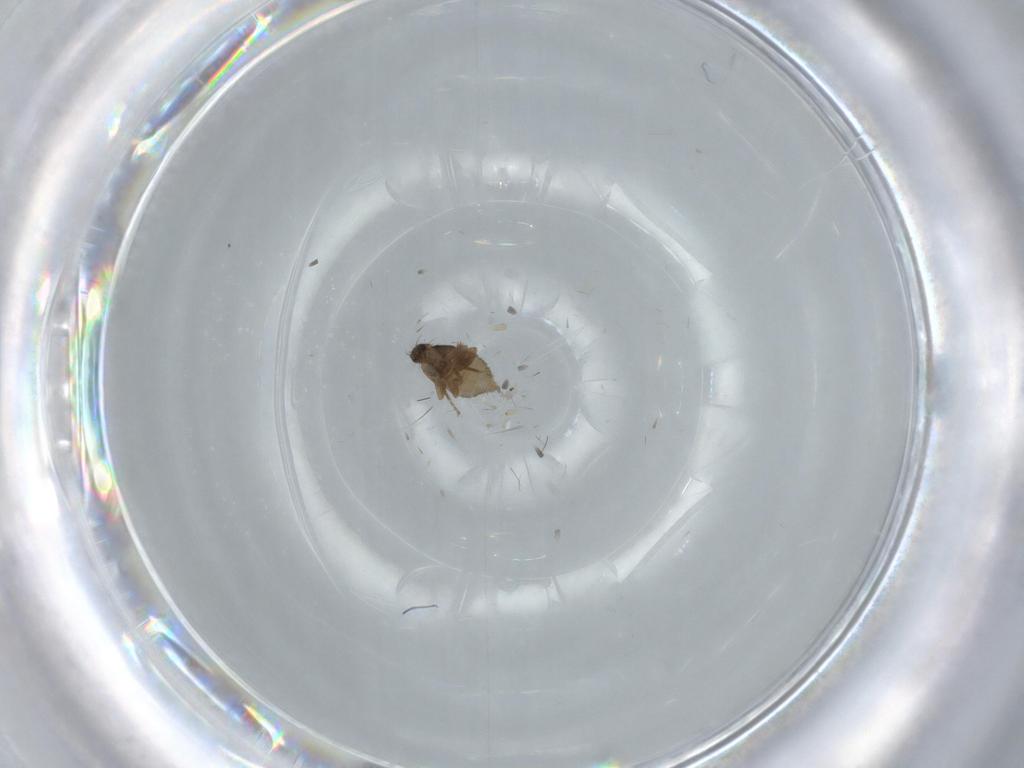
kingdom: Animalia
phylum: Arthropoda
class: Insecta
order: Diptera
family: Phoridae
